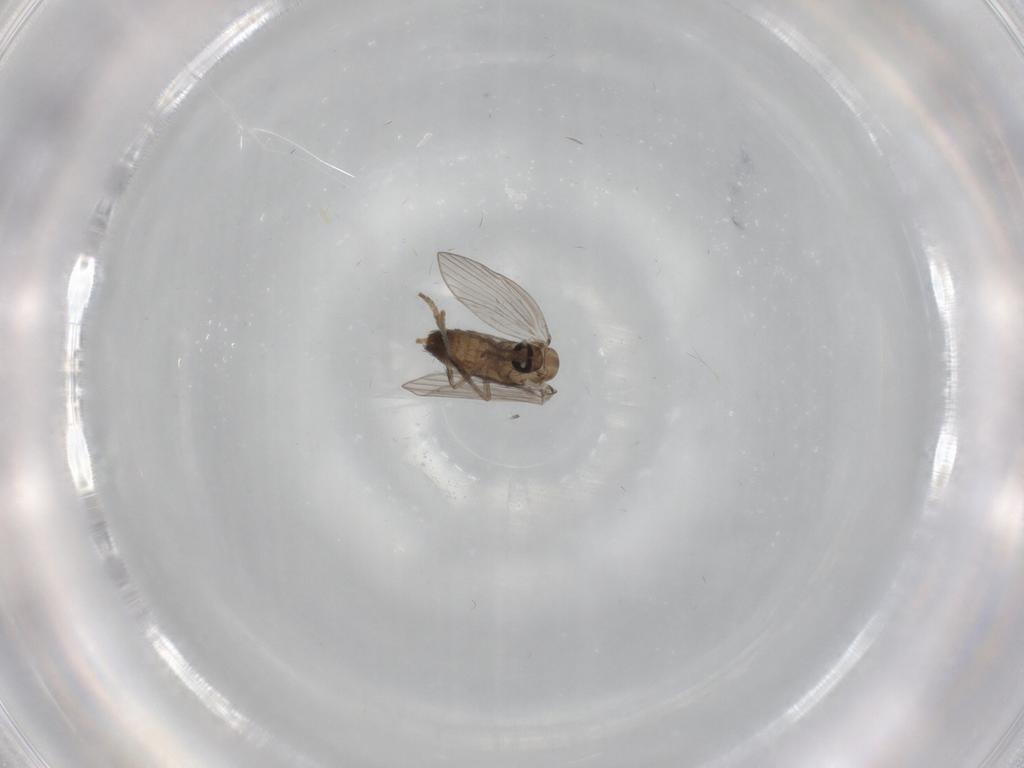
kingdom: Animalia
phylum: Arthropoda
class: Insecta
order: Diptera
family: Psychodidae
